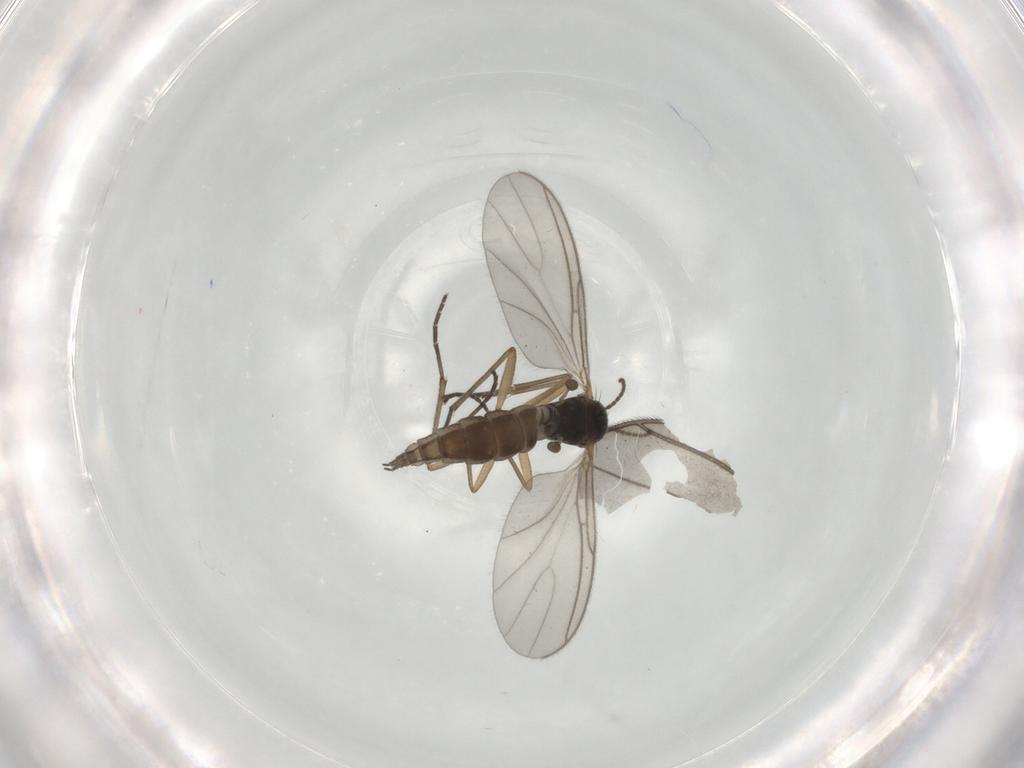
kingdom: Animalia
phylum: Arthropoda
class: Insecta
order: Diptera
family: Sciaridae
